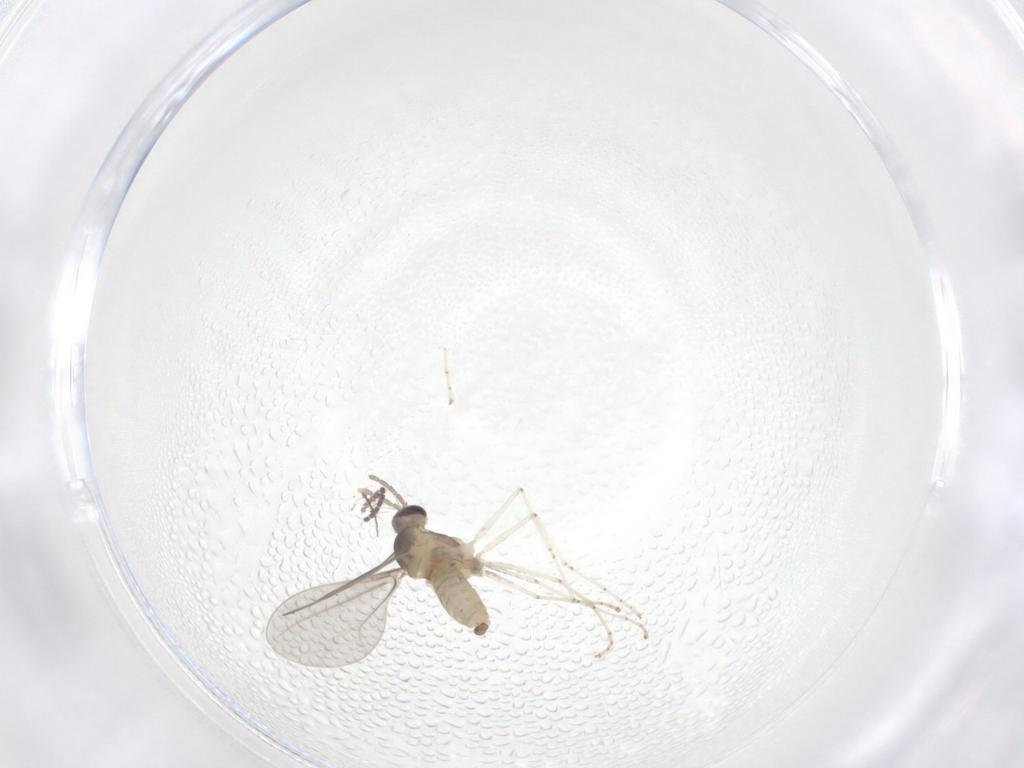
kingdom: Animalia
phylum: Arthropoda
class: Insecta
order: Diptera
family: Sciaridae
